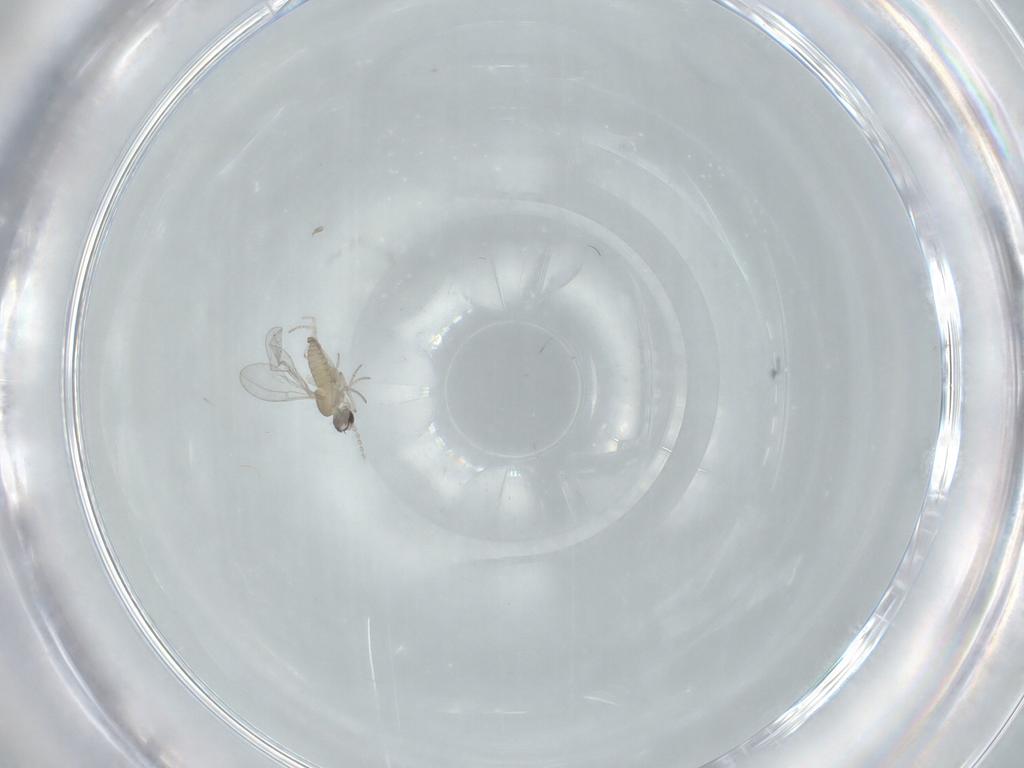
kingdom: Animalia
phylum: Arthropoda
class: Insecta
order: Diptera
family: Cecidomyiidae
